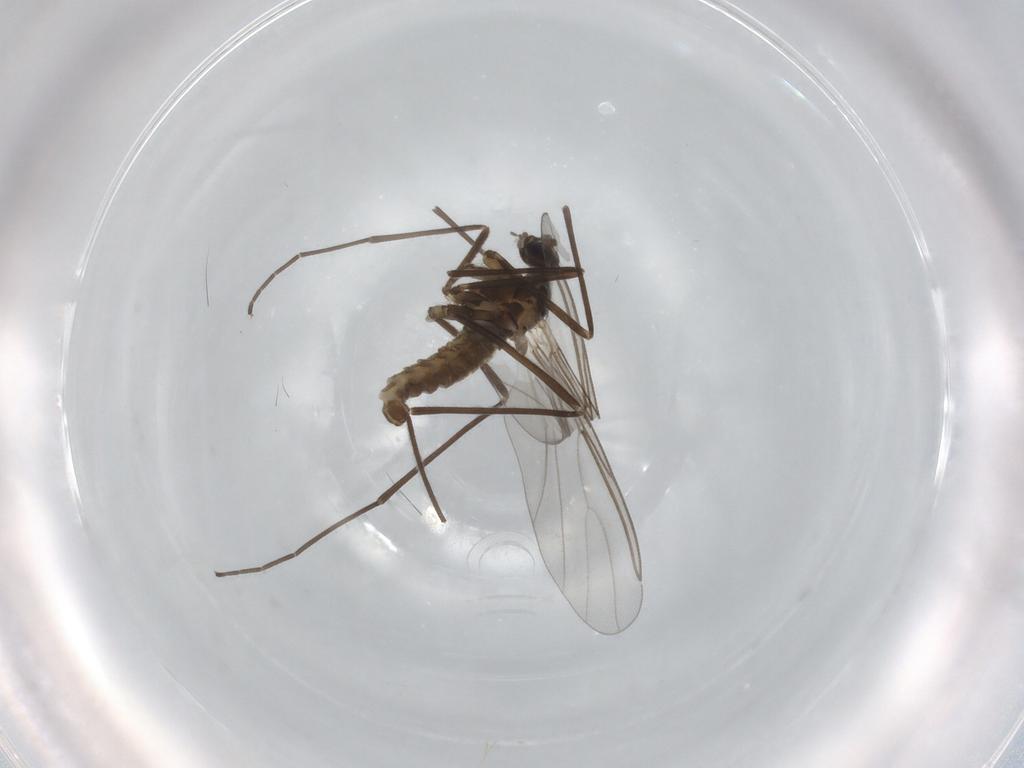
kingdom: Animalia
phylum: Arthropoda
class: Insecta
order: Diptera
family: Cecidomyiidae
